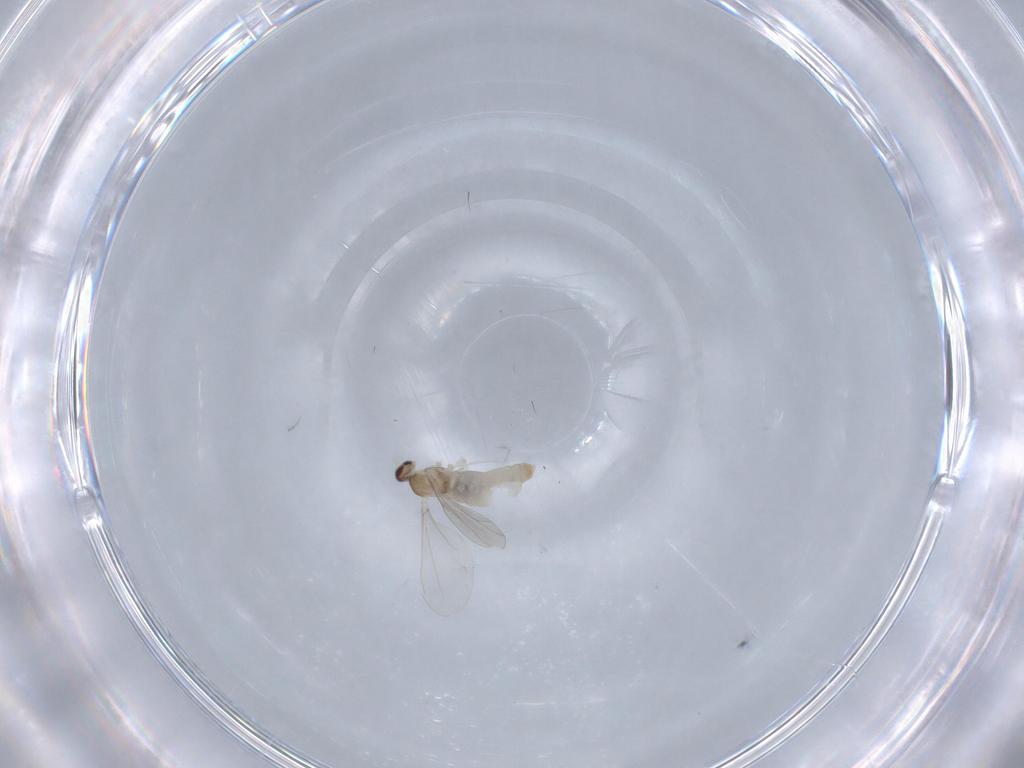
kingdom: Animalia
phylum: Arthropoda
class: Insecta
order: Diptera
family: Cecidomyiidae
